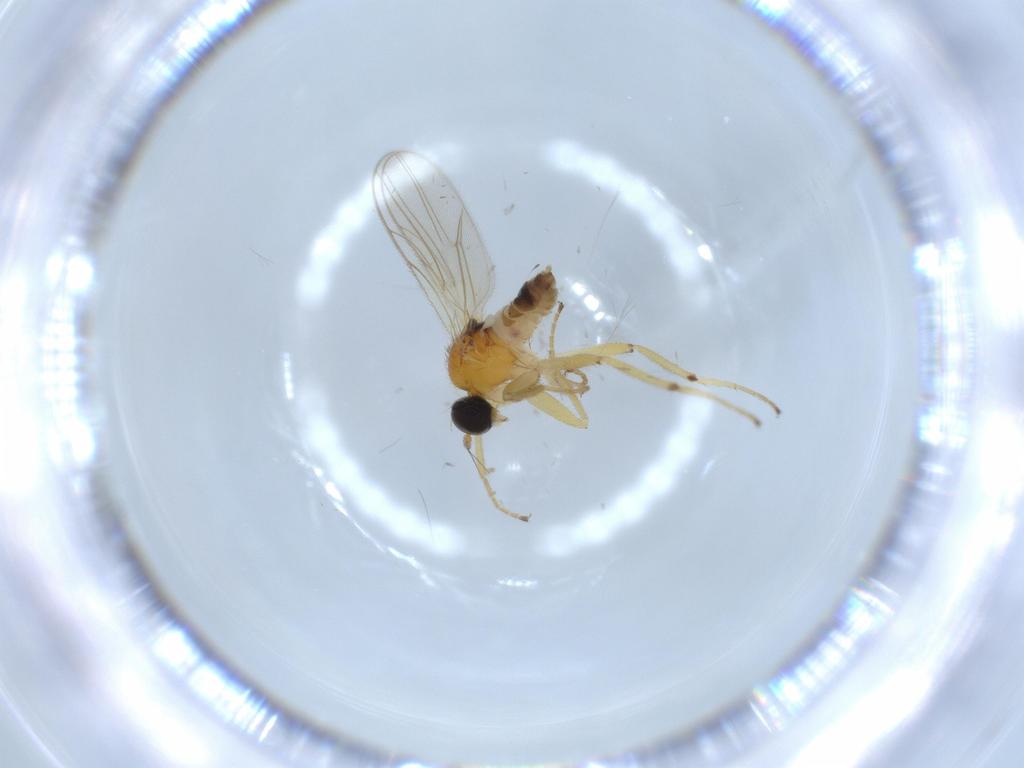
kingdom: Animalia
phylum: Arthropoda
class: Insecta
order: Diptera
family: Hybotidae
